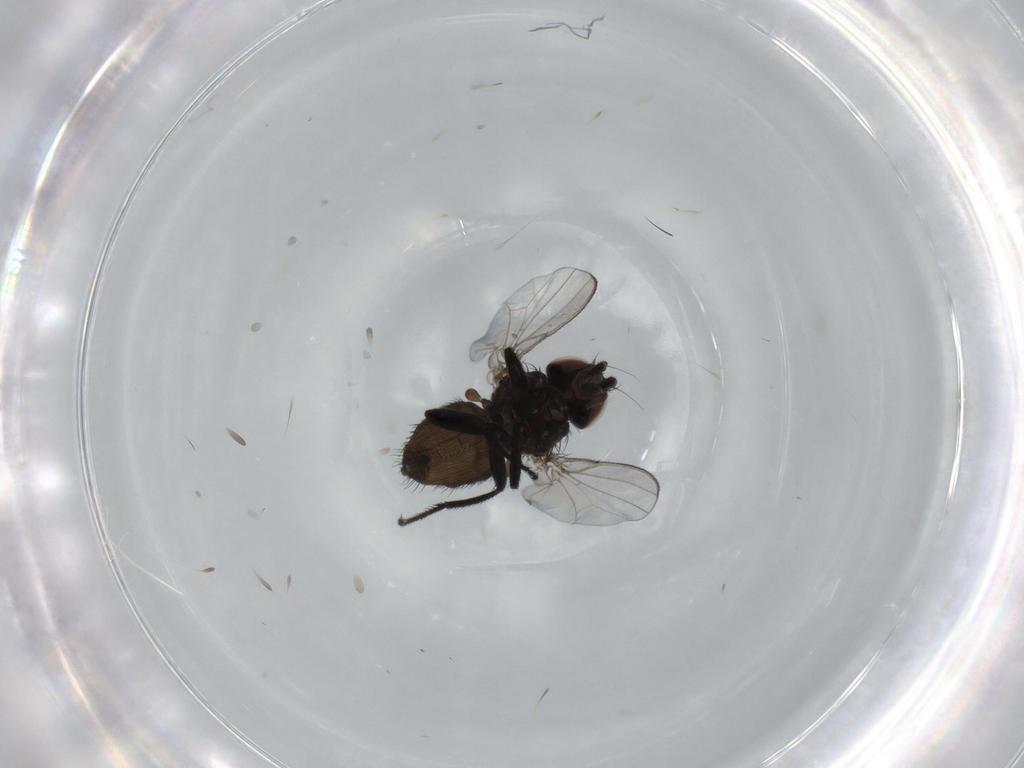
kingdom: Animalia
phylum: Arthropoda
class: Insecta
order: Diptera
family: Milichiidae
